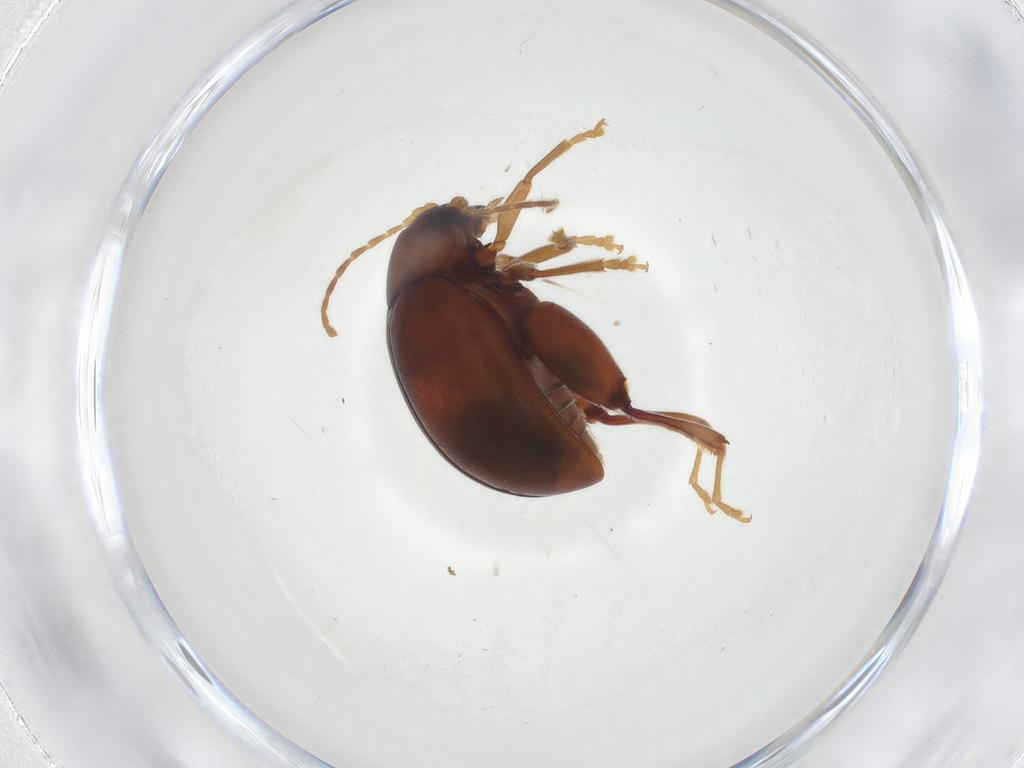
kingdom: Animalia
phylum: Arthropoda
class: Insecta
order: Coleoptera
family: Chrysomelidae
